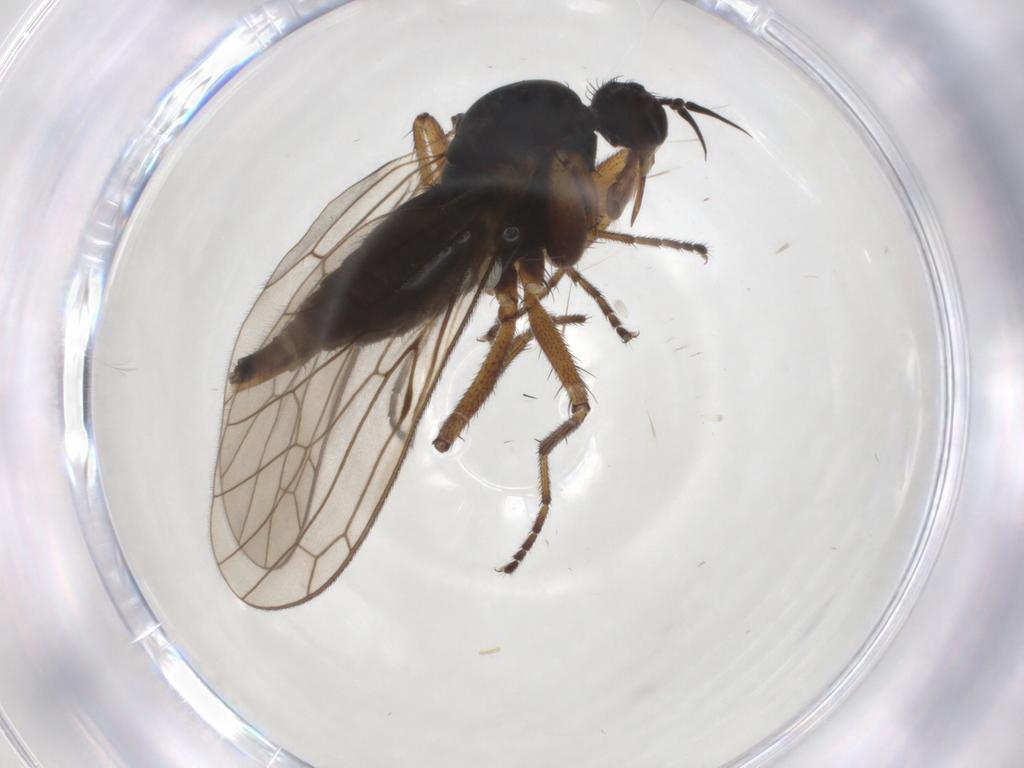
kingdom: Animalia
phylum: Arthropoda
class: Insecta
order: Diptera
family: Empididae
